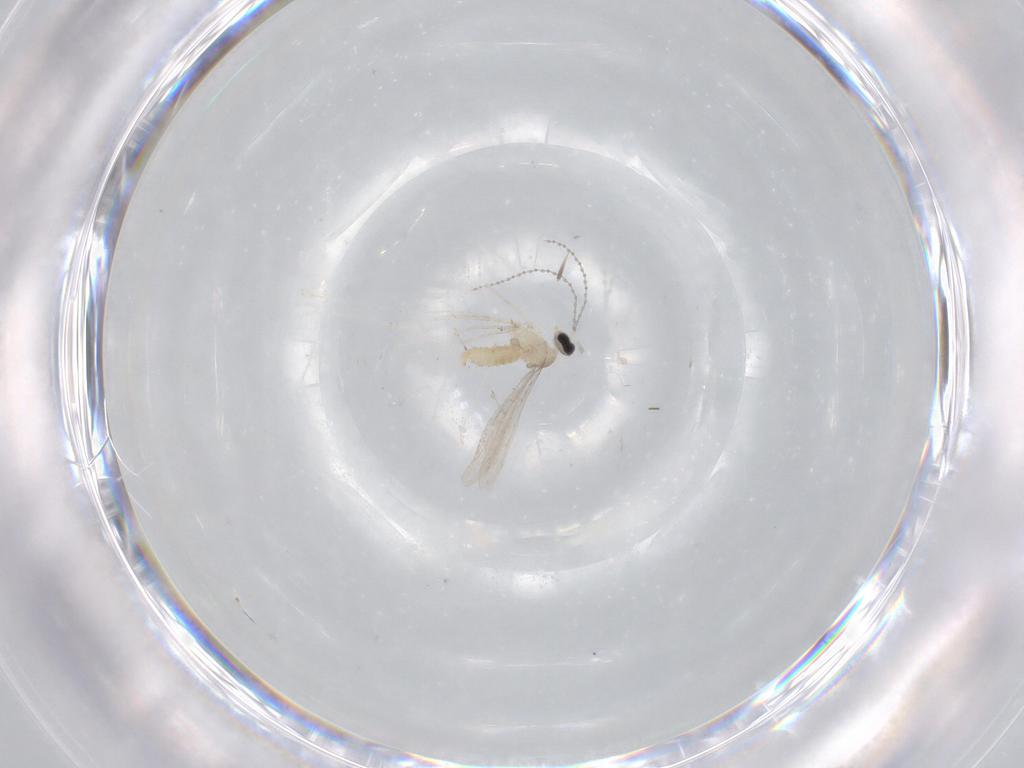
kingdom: Animalia
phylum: Arthropoda
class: Insecta
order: Diptera
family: Cecidomyiidae
